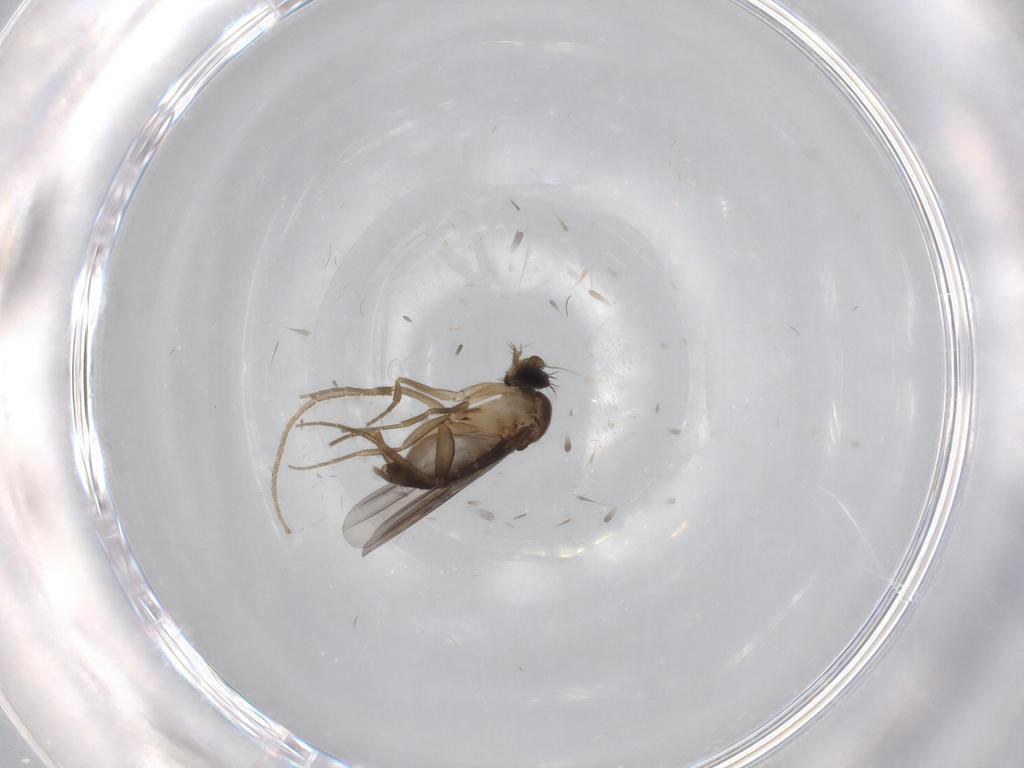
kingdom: Animalia
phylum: Arthropoda
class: Insecta
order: Diptera
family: Phoridae
